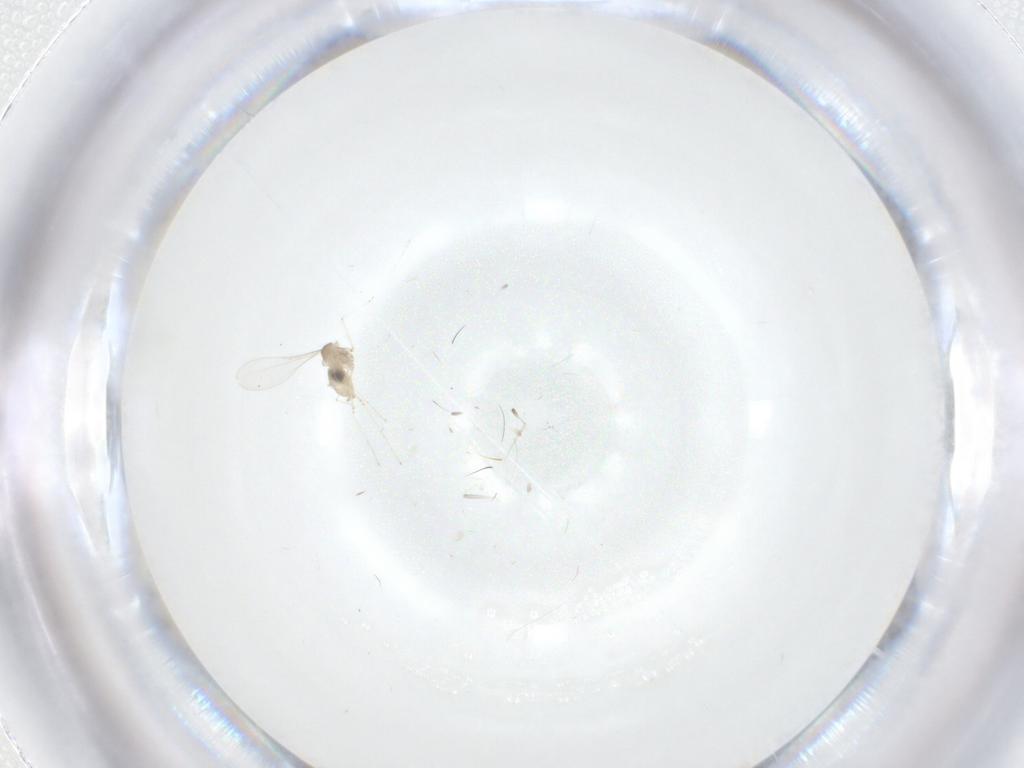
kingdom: Animalia
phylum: Arthropoda
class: Insecta
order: Diptera
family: Cecidomyiidae
